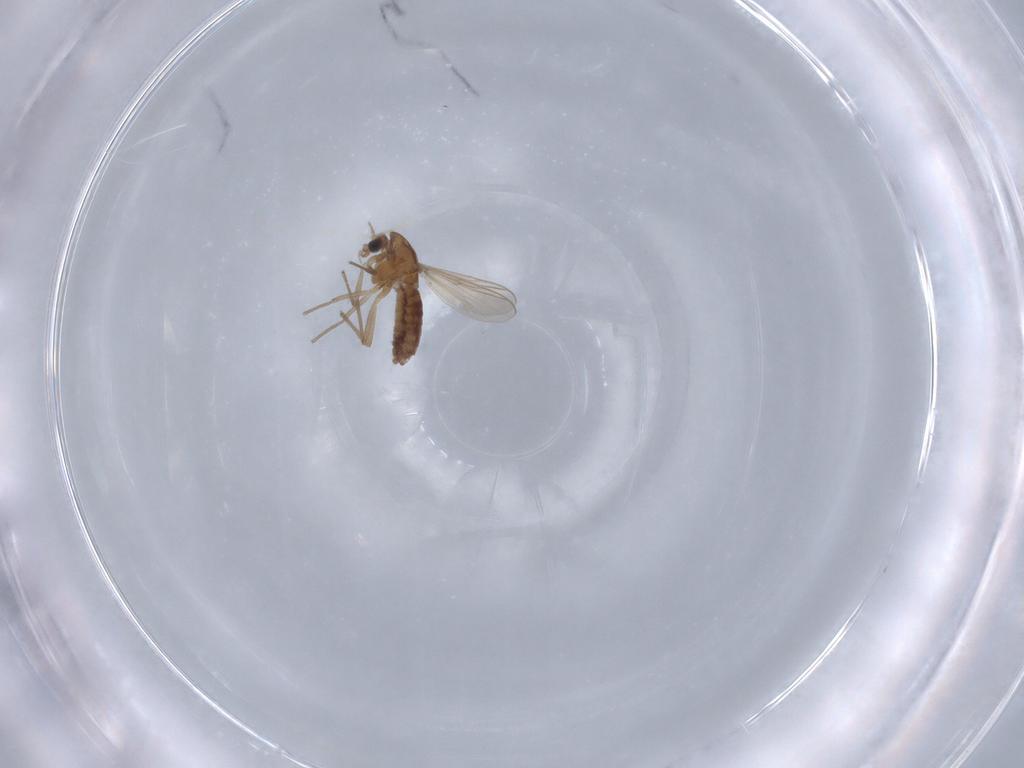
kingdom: Animalia
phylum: Arthropoda
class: Insecta
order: Diptera
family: Chironomidae
